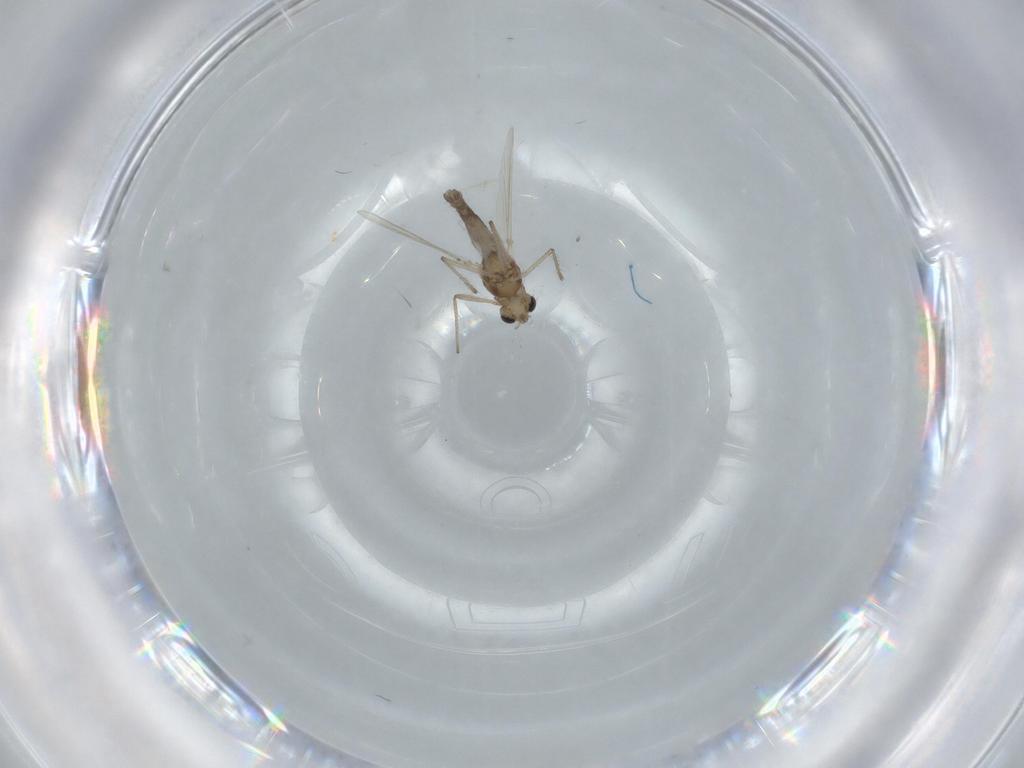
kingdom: Animalia
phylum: Arthropoda
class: Insecta
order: Diptera
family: Chironomidae
